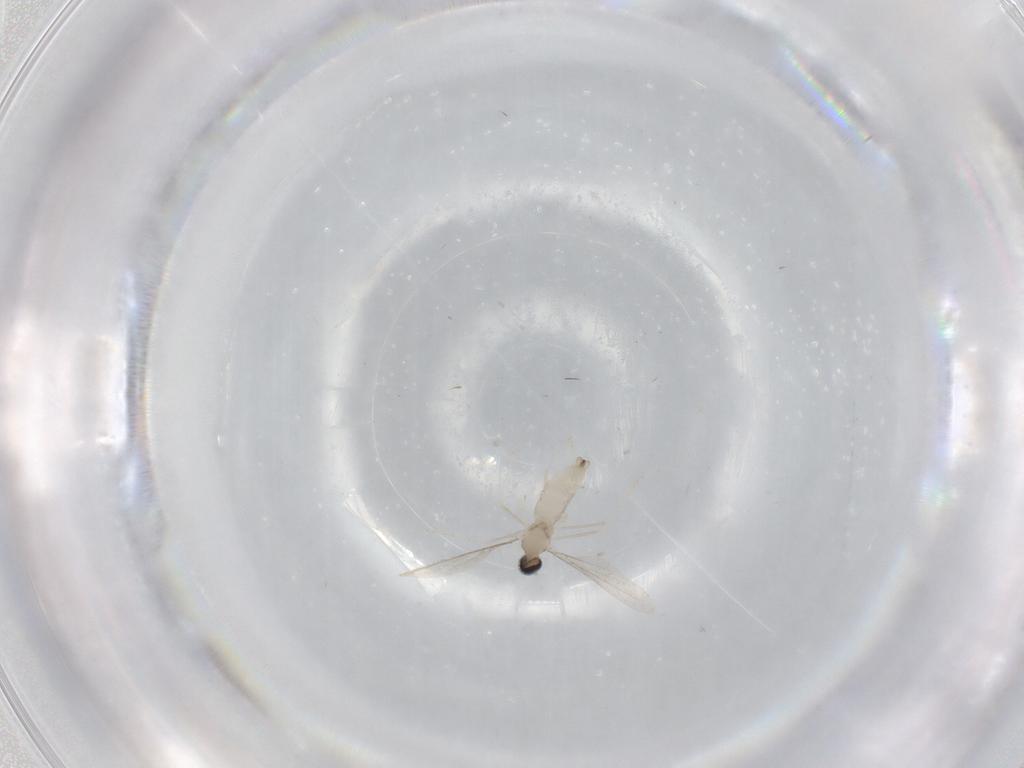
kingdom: Animalia
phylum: Arthropoda
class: Insecta
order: Diptera
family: Cecidomyiidae
